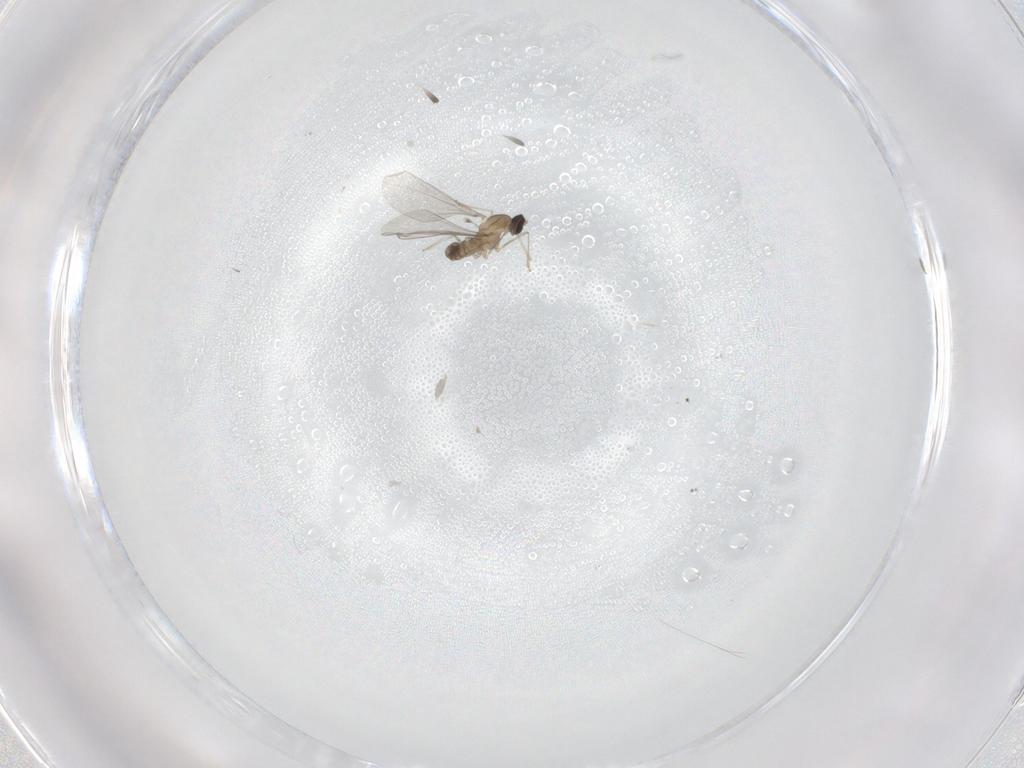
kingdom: Animalia
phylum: Arthropoda
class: Insecta
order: Diptera
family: Cecidomyiidae
